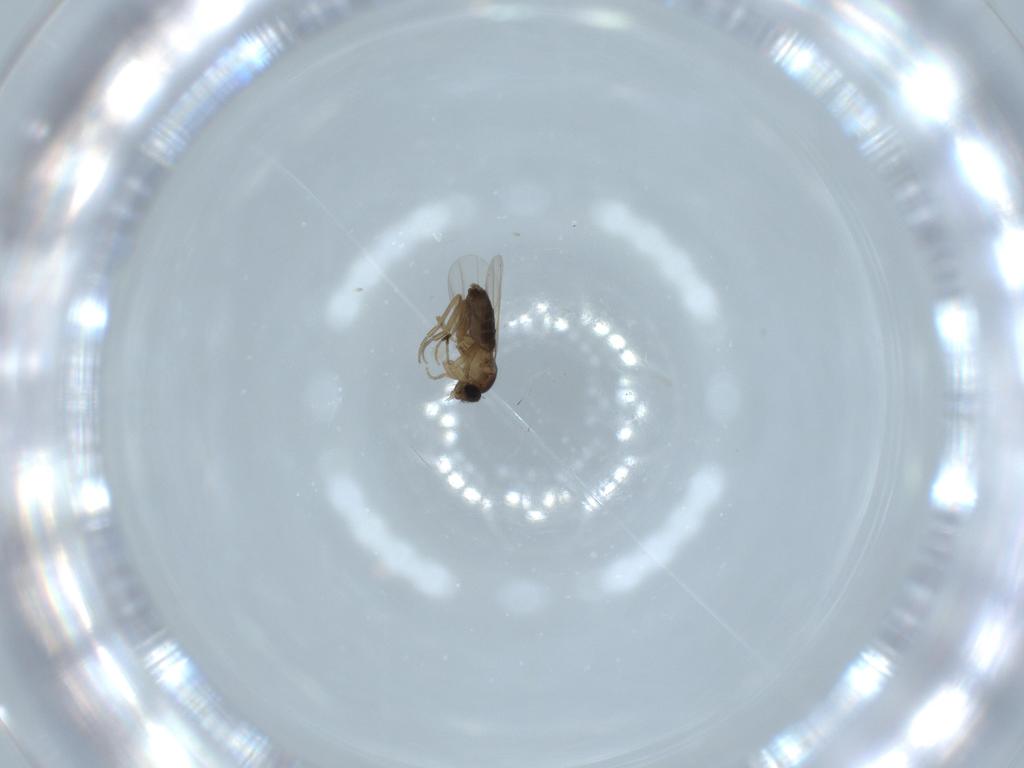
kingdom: Animalia
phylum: Arthropoda
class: Insecta
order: Diptera
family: Phoridae
